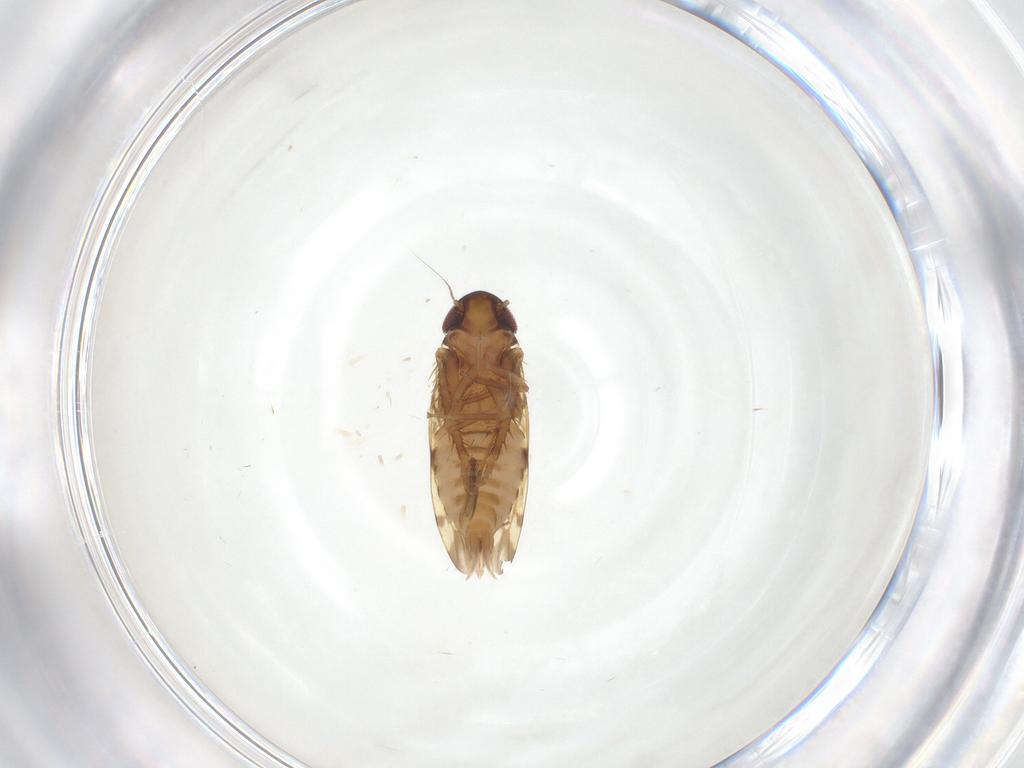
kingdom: Animalia
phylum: Arthropoda
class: Insecta
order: Hemiptera
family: Cicadellidae
